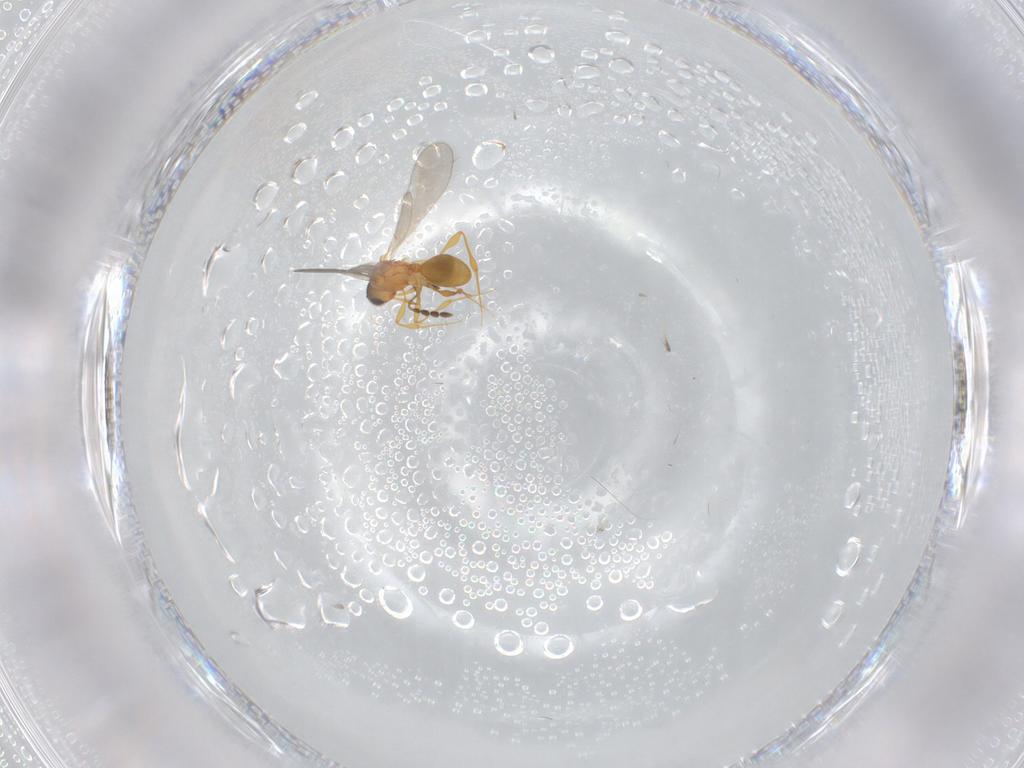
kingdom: Animalia
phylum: Arthropoda
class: Insecta
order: Hymenoptera
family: Platygastridae
